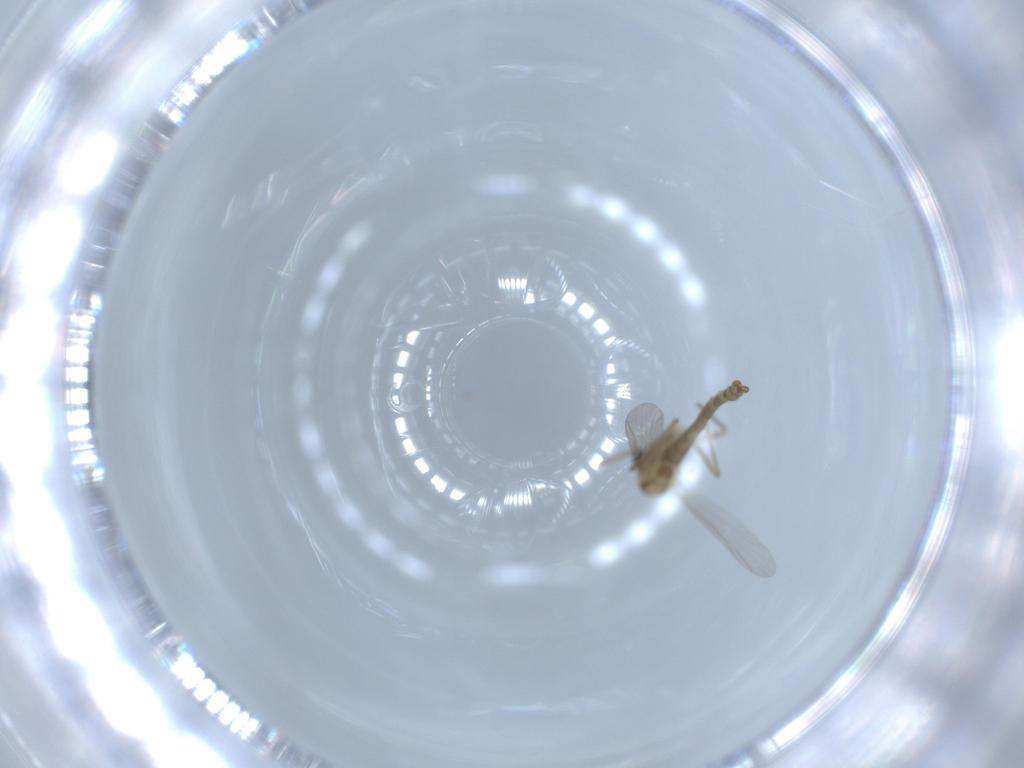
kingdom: Animalia
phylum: Arthropoda
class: Insecta
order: Diptera
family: Chironomidae
